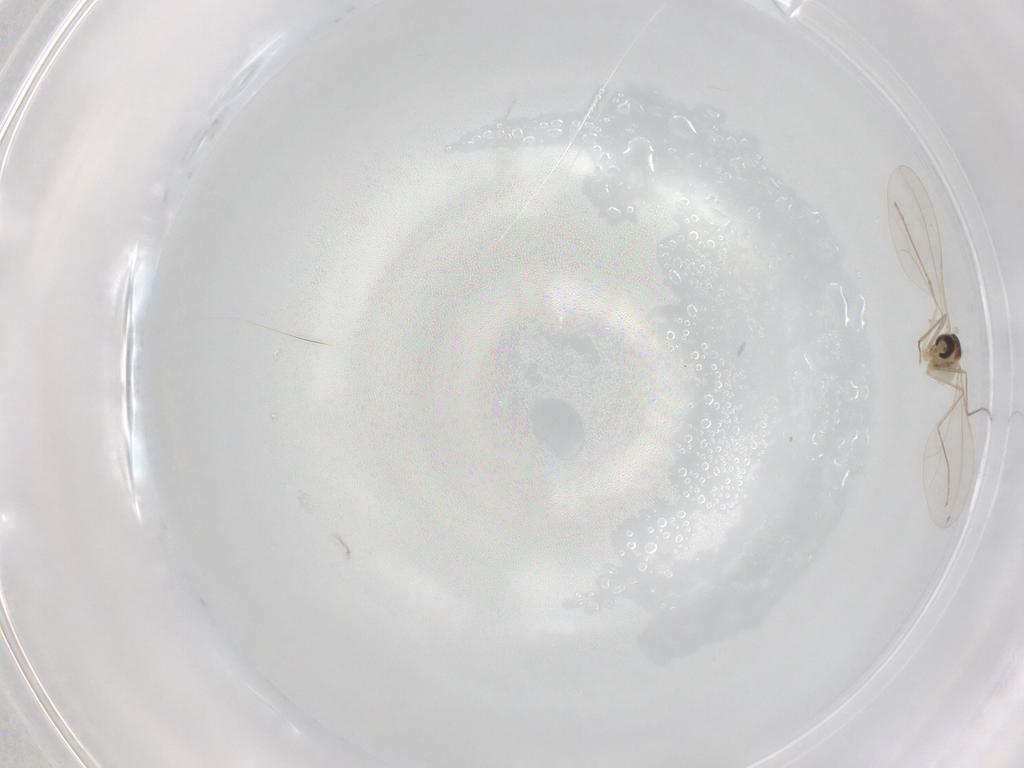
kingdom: Animalia
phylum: Arthropoda
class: Insecta
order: Diptera
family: Cecidomyiidae
